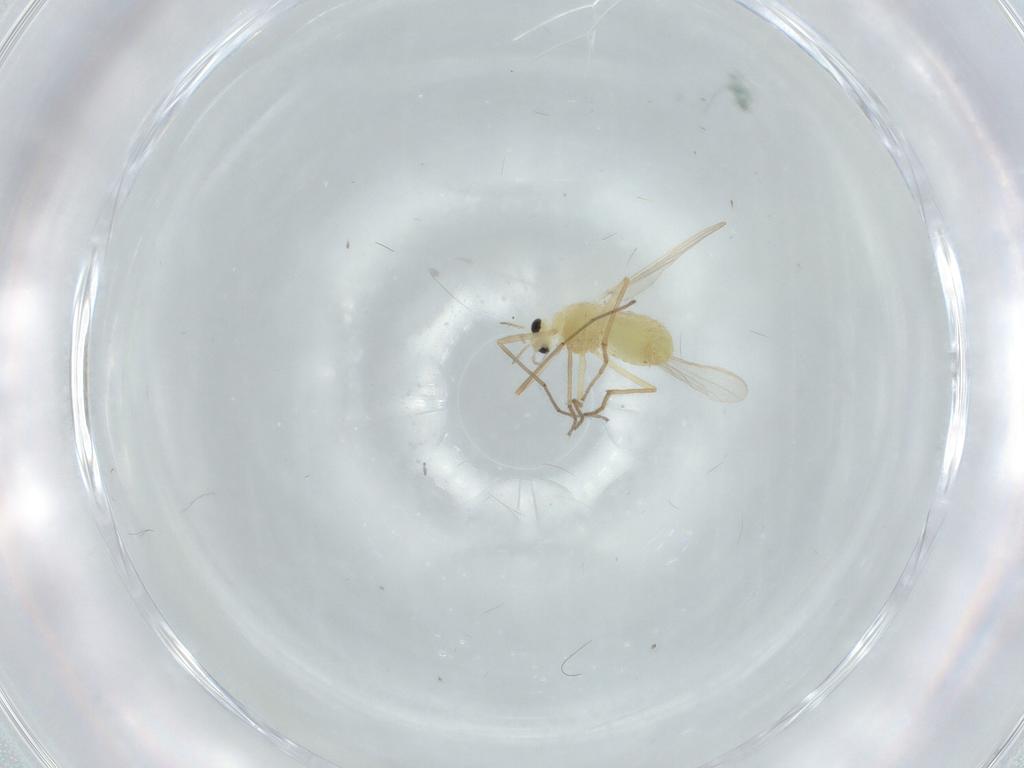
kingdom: Animalia
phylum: Arthropoda
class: Insecta
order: Diptera
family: Chironomidae
